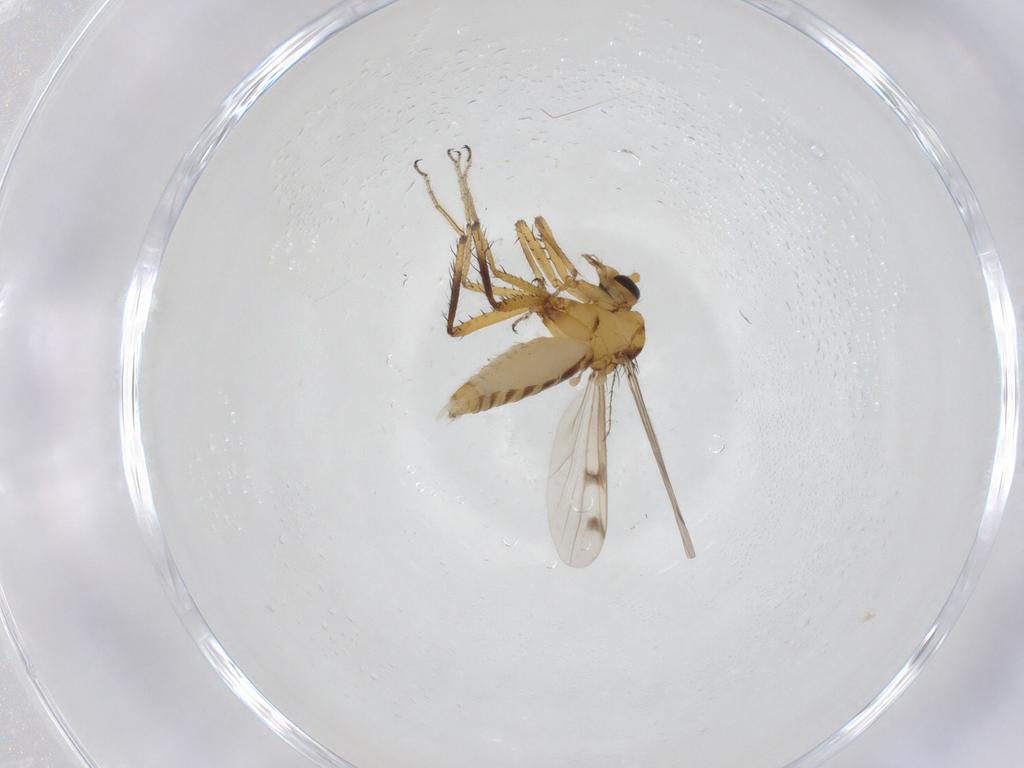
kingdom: Animalia
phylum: Arthropoda
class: Insecta
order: Diptera
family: Ceratopogonidae
